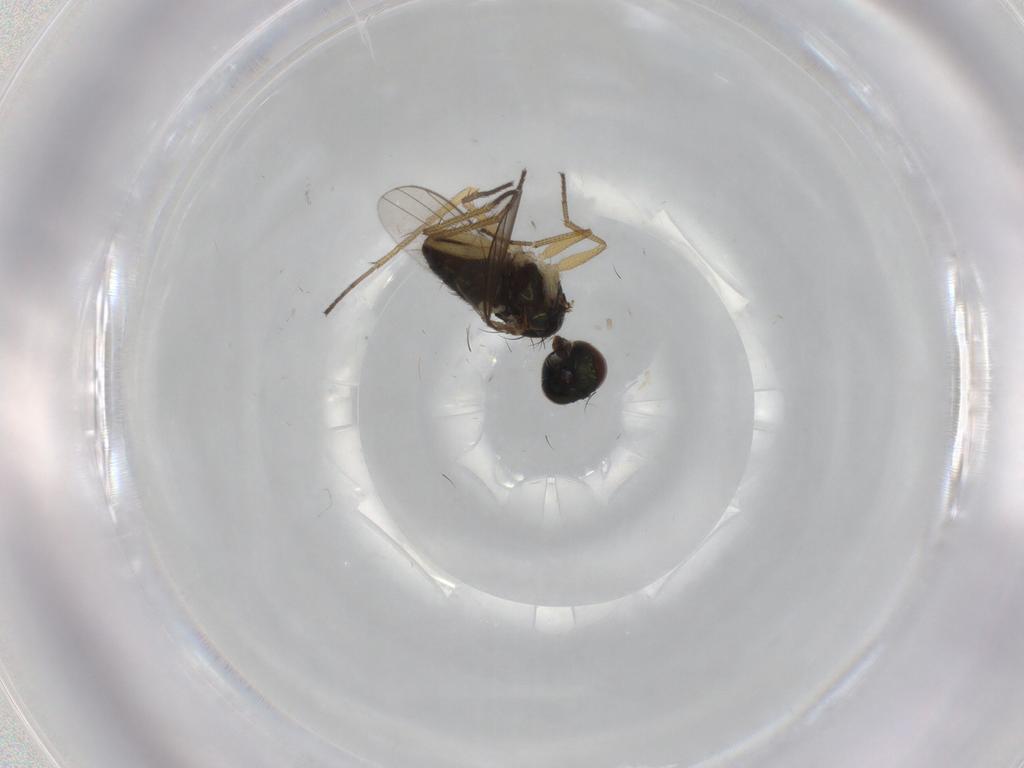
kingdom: Animalia
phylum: Arthropoda
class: Insecta
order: Diptera
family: Dolichopodidae
